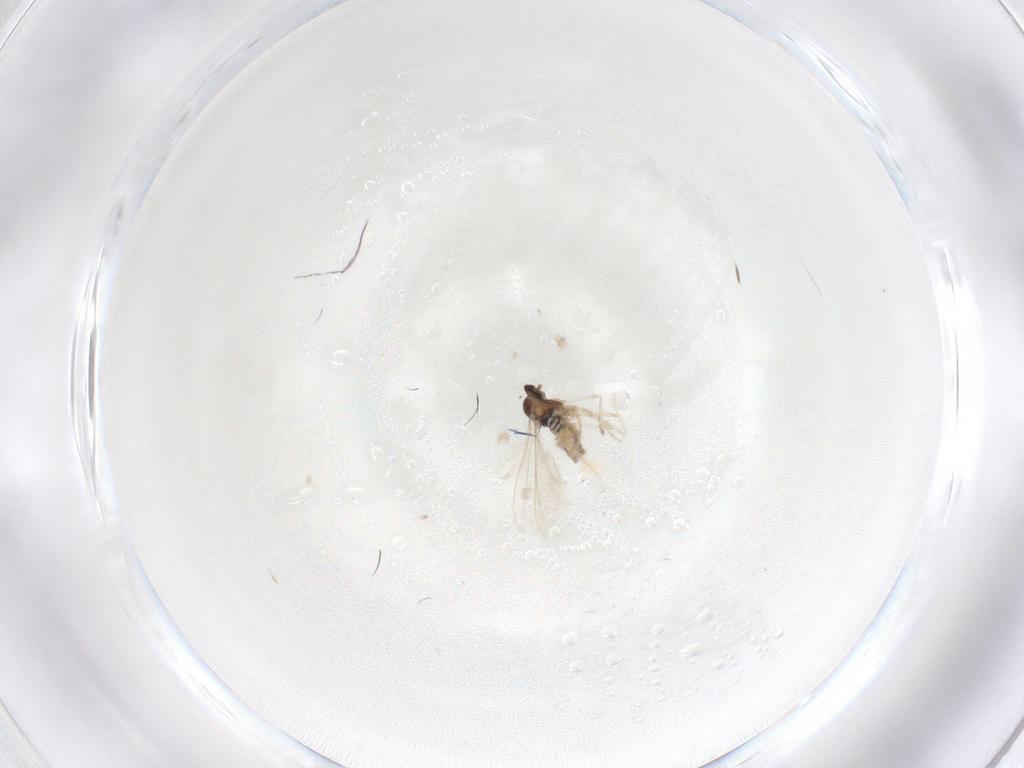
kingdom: Animalia
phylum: Arthropoda
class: Insecta
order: Diptera
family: Cecidomyiidae
